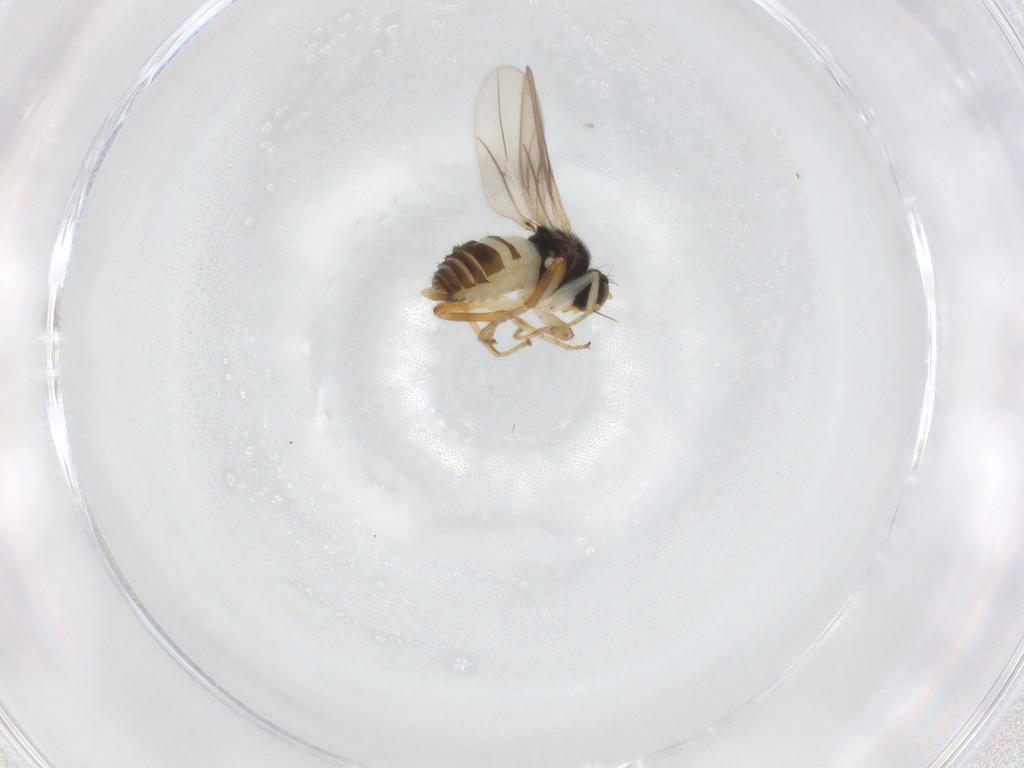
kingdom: Animalia
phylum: Arthropoda
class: Insecta
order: Diptera
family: Hybotidae
